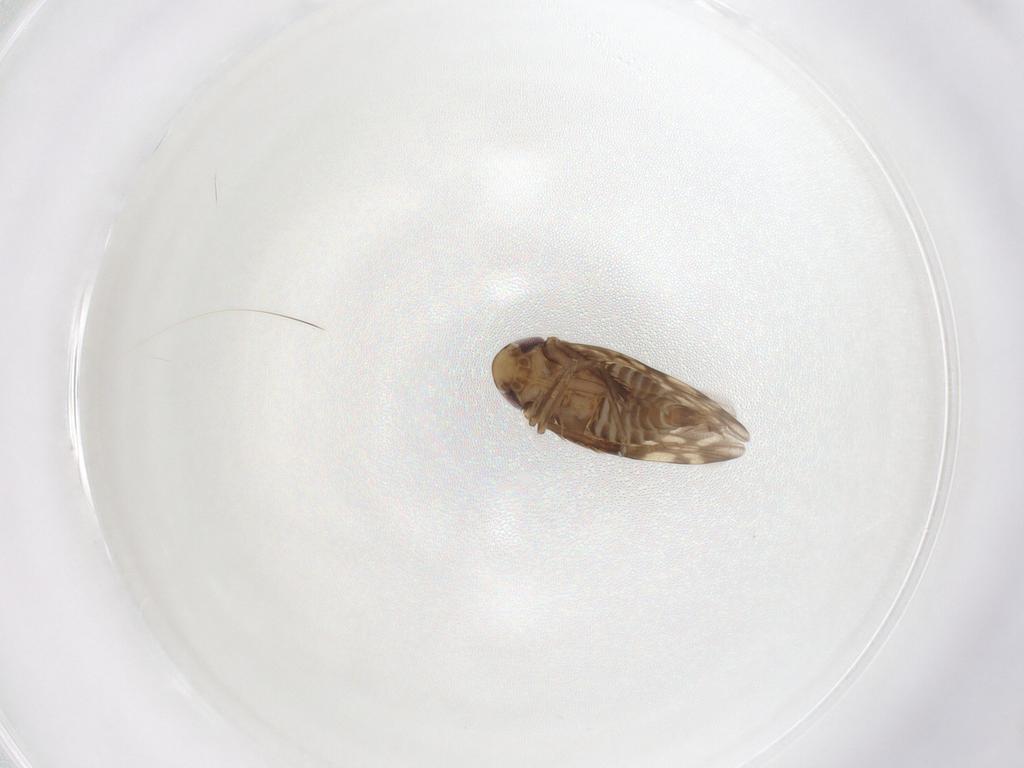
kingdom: Animalia
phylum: Arthropoda
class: Insecta
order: Hemiptera
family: Cicadellidae
